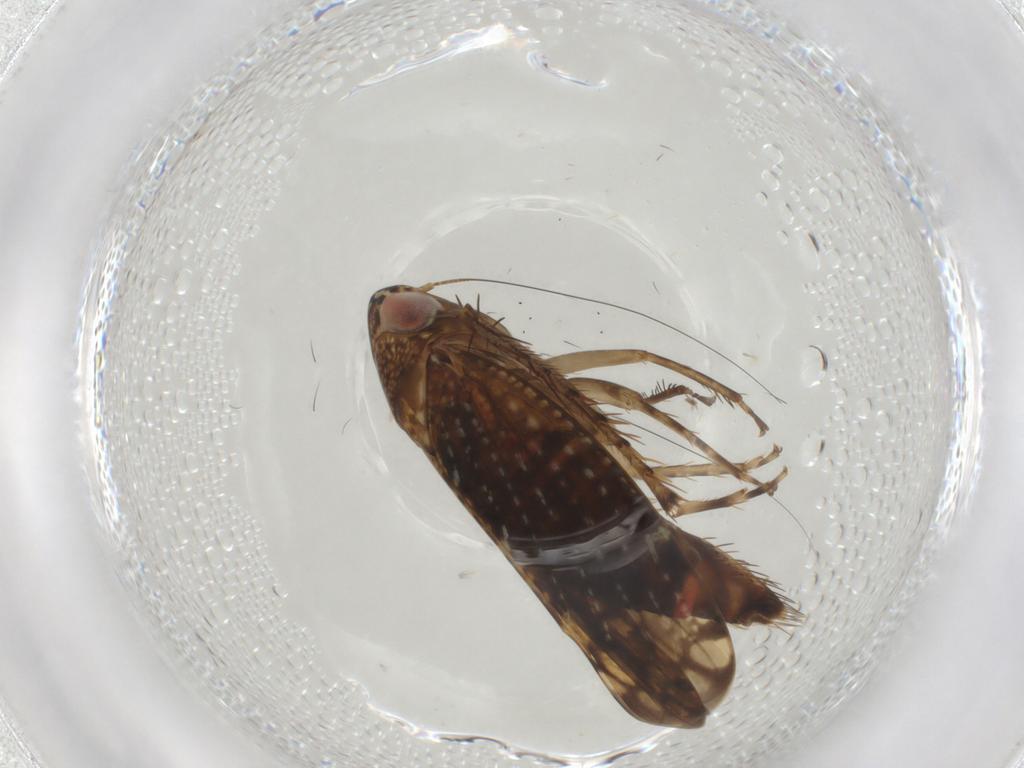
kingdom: Animalia
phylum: Arthropoda
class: Insecta
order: Hemiptera
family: Cicadellidae
